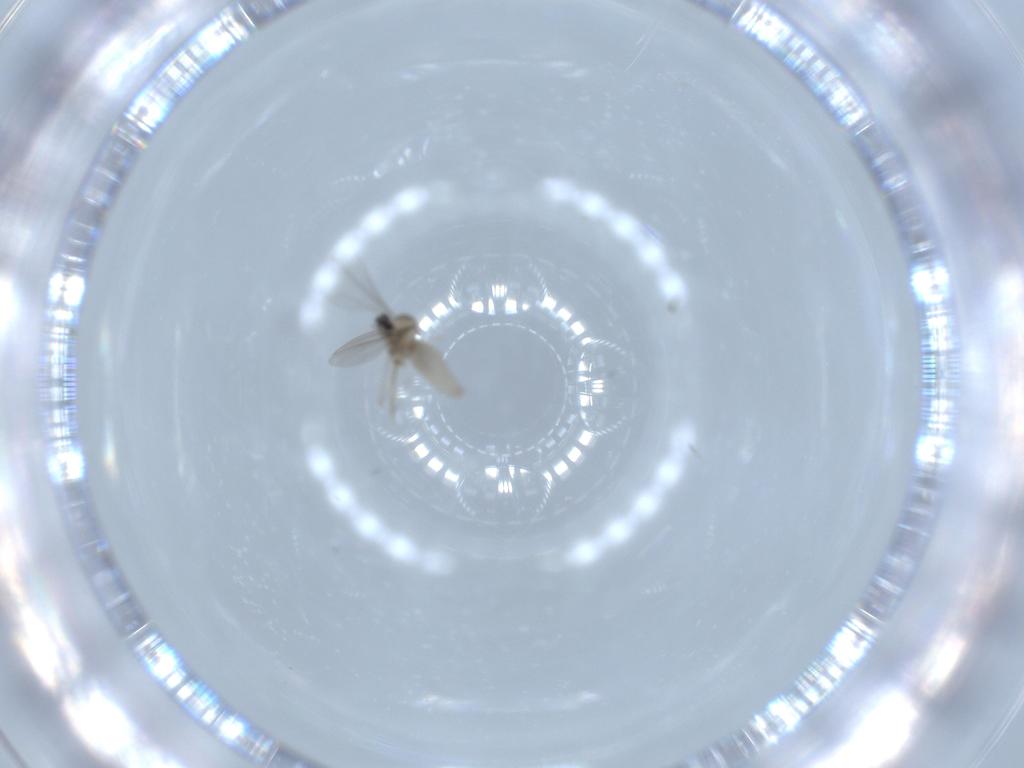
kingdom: Animalia
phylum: Arthropoda
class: Insecta
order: Diptera
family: Cecidomyiidae
